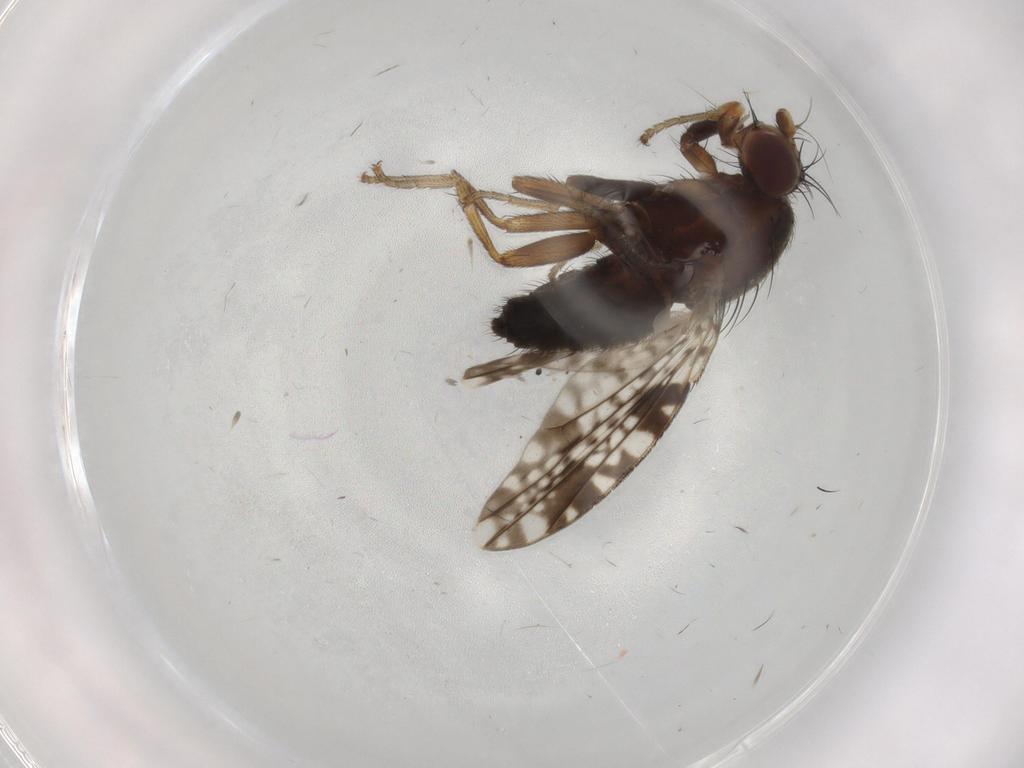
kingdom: Animalia
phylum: Arthropoda
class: Insecta
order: Diptera
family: Tephritidae
